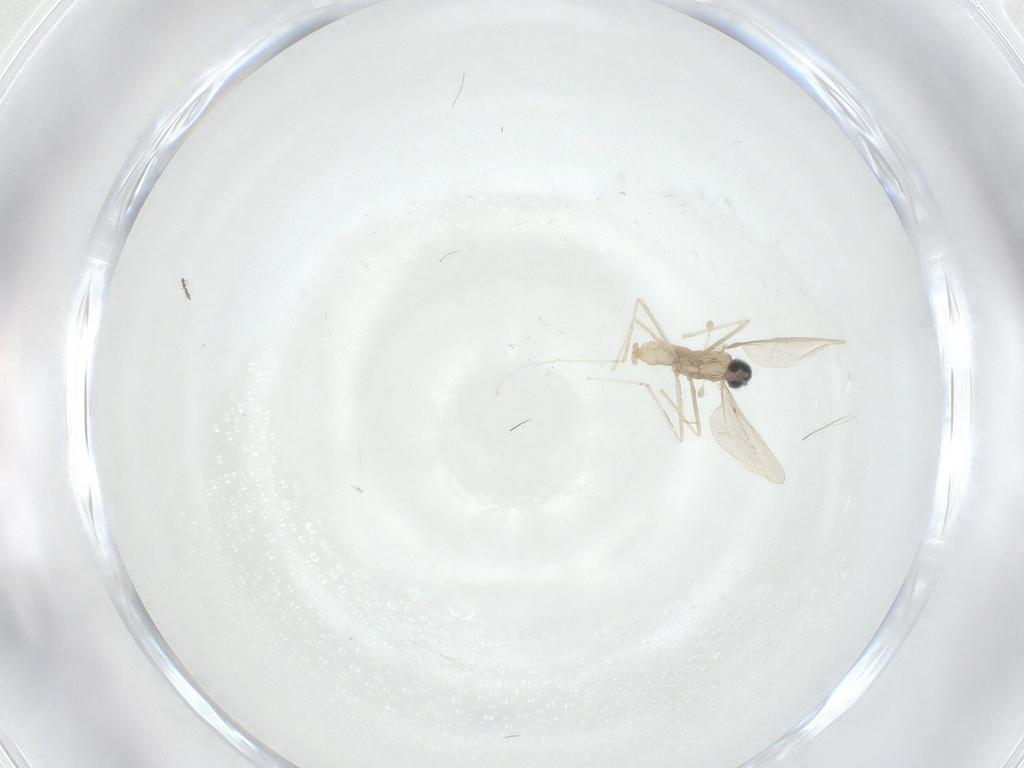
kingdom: Animalia
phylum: Arthropoda
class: Insecta
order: Diptera
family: Cecidomyiidae
